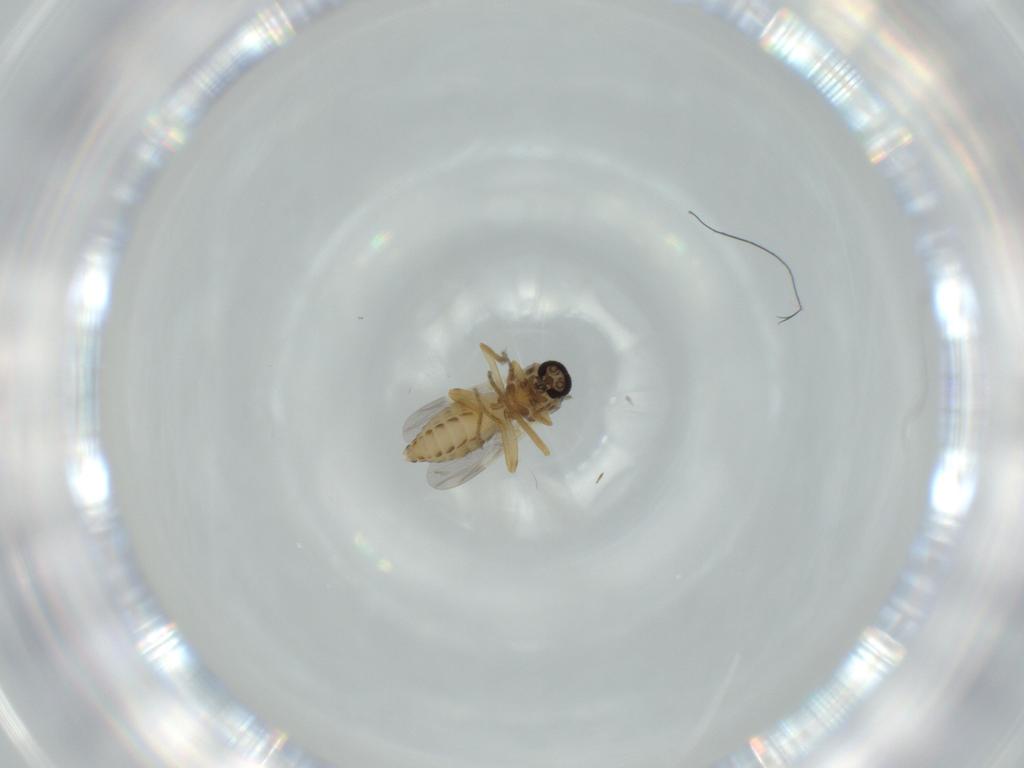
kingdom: Animalia
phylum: Arthropoda
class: Insecta
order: Diptera
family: Ceratopogonidae
